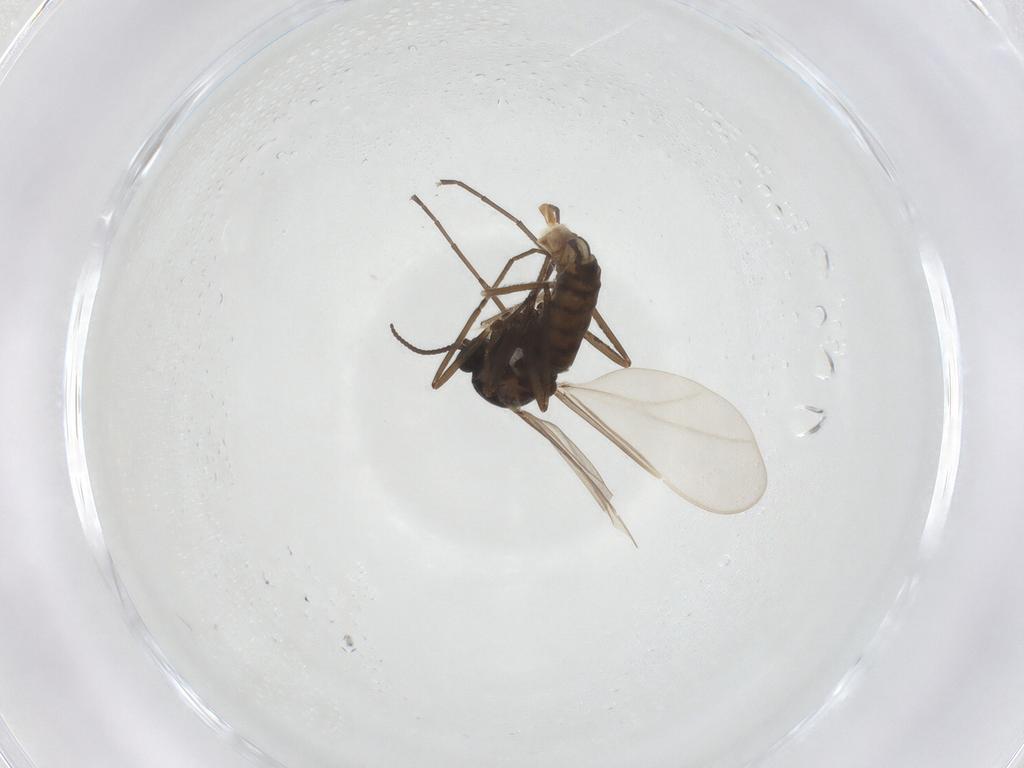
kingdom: Animalia
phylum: Arthropoda
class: Insecta
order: Diptera
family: Cecidomyiidae
